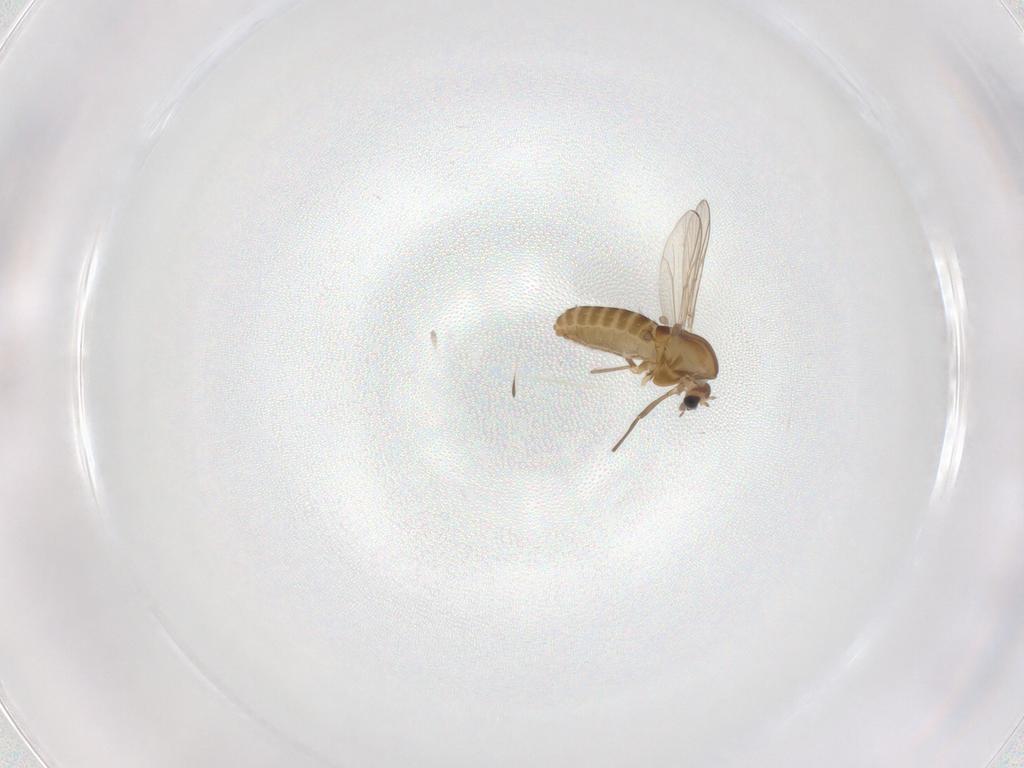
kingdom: Animalia
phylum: Arthropoda
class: Insecta
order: Diptera
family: Chironomidae
